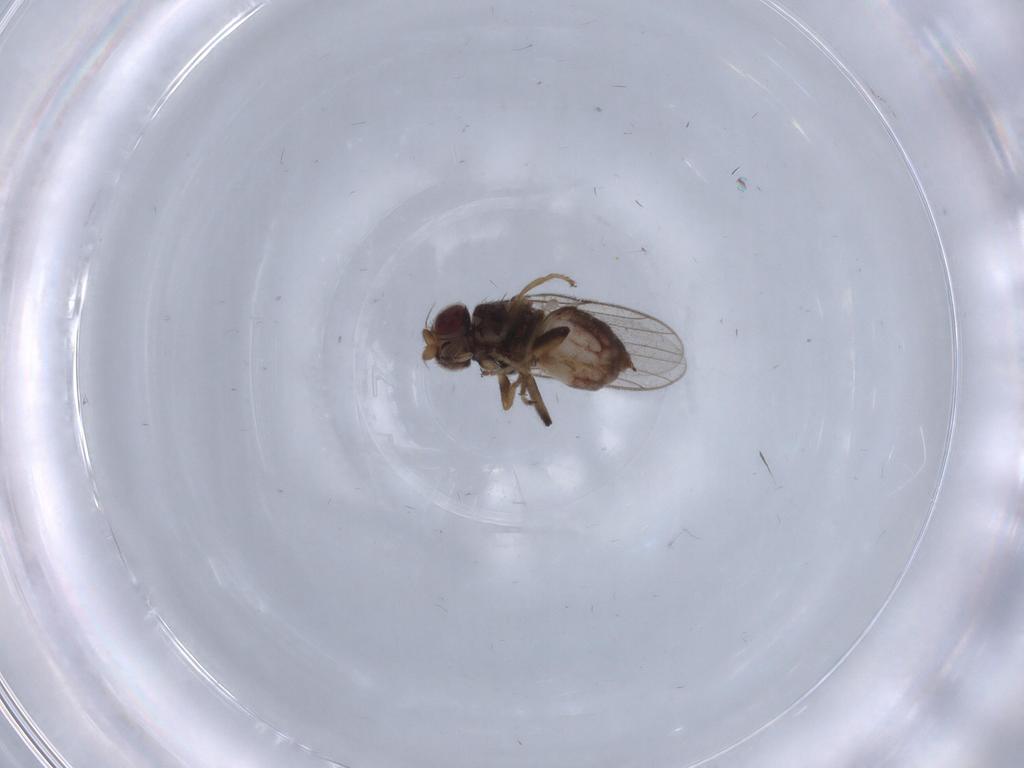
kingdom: Animalia
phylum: Arthropoda
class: Insecta
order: Diptera
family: Chloropidae
